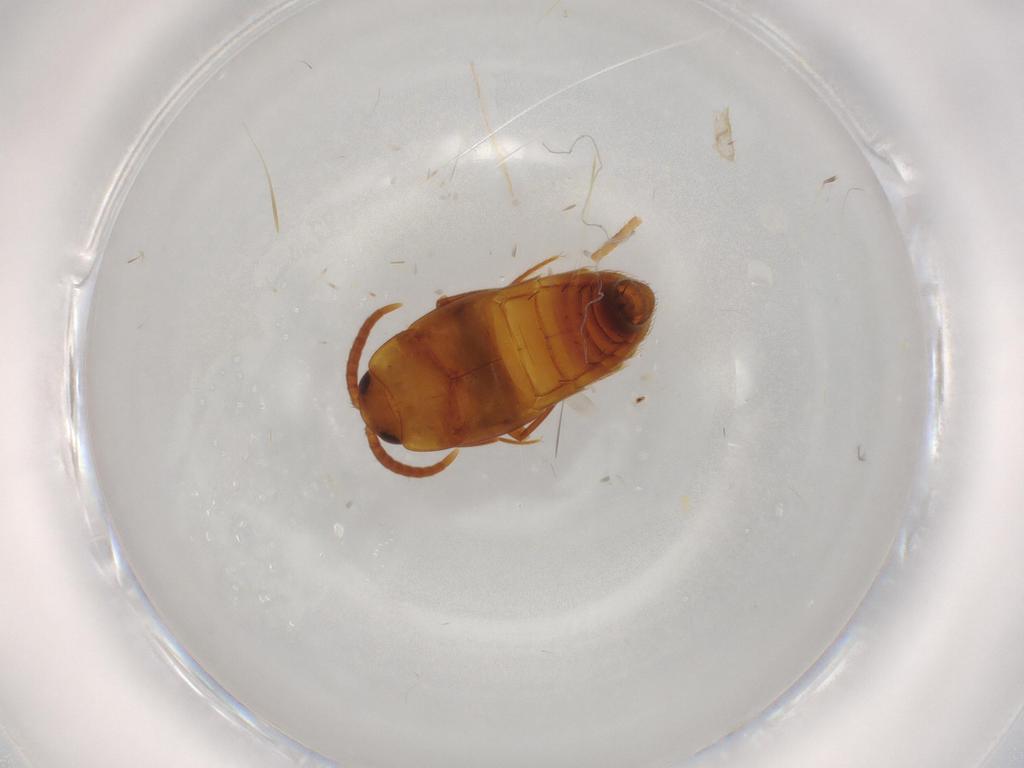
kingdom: Animalia
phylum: Arthropoda
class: Insecta
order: Coleoptera
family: Staphylinidae
